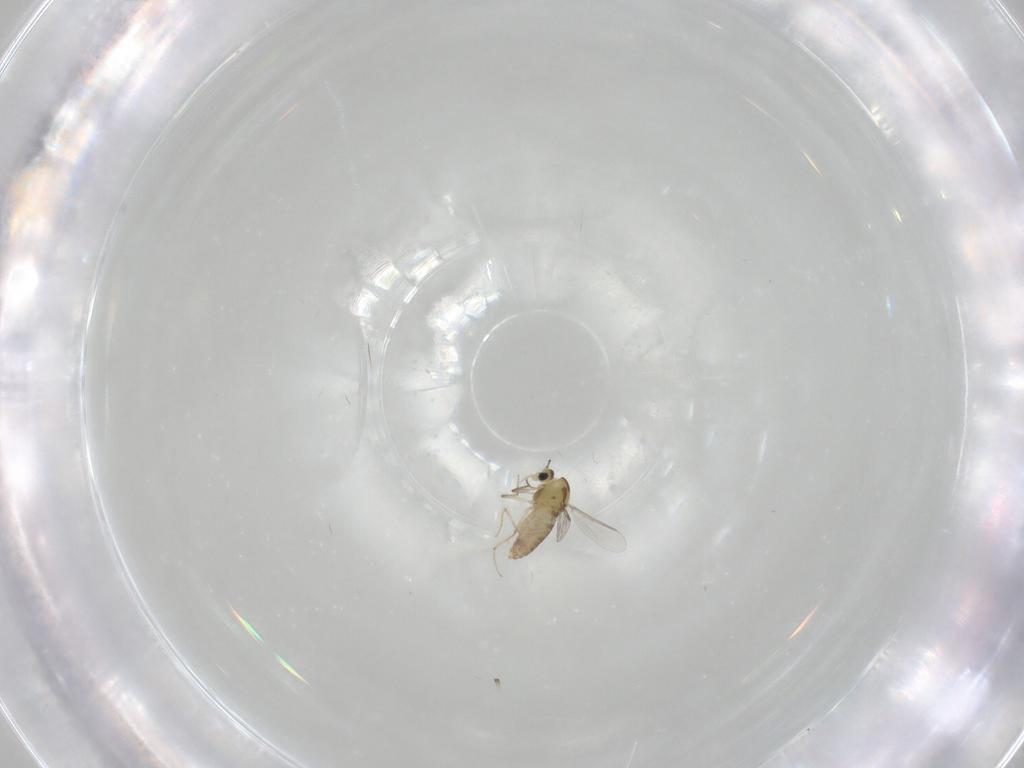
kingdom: Animalia
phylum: Arthropoda
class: Insecta
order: Diptera
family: Chironomidae
